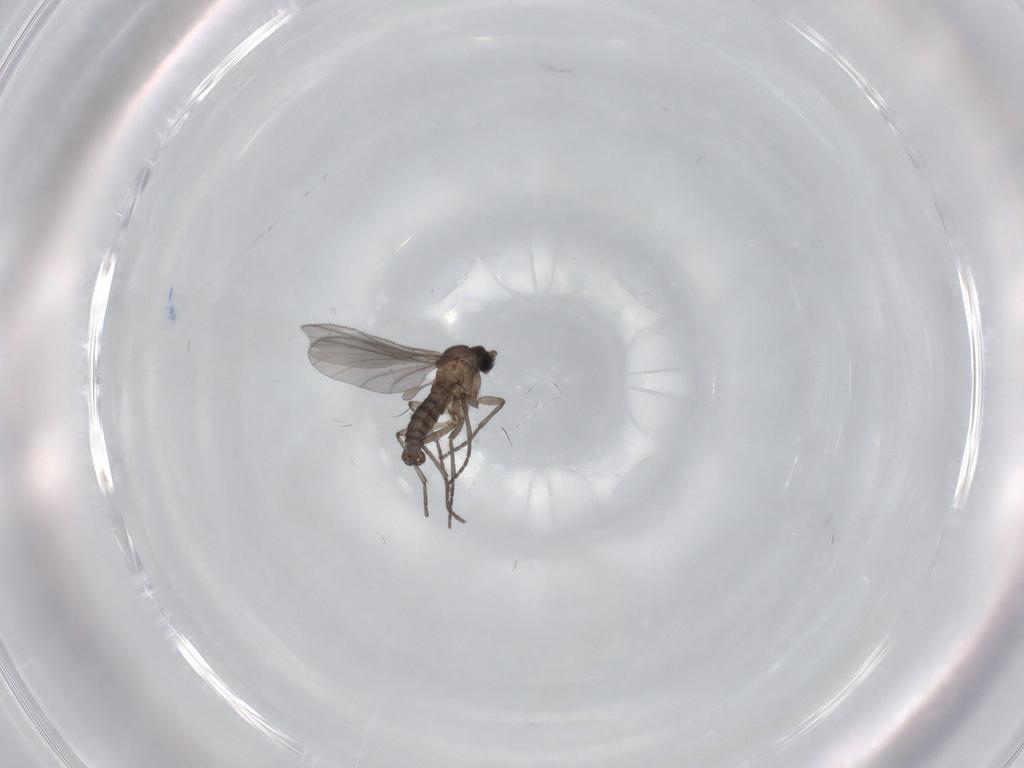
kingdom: Animalia
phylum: Arthropoda
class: Insecta
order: Diptera
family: Sciaridae
